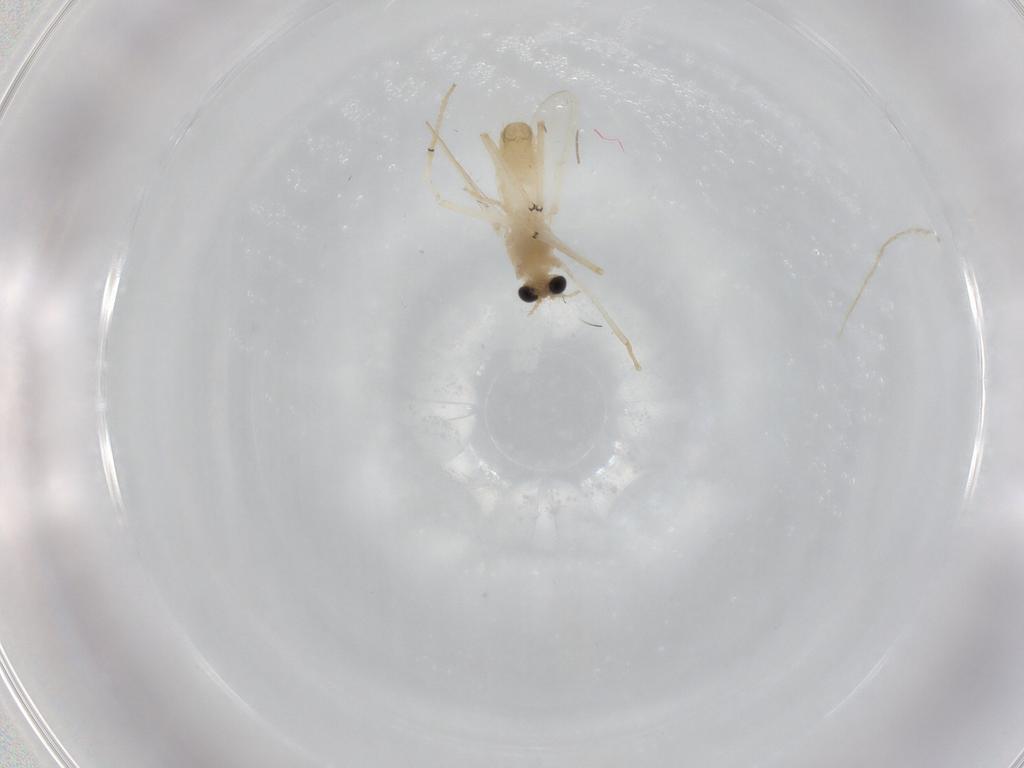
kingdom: Animalia
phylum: Arthropoda
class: Insecta
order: Diptera
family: Chironomidae
